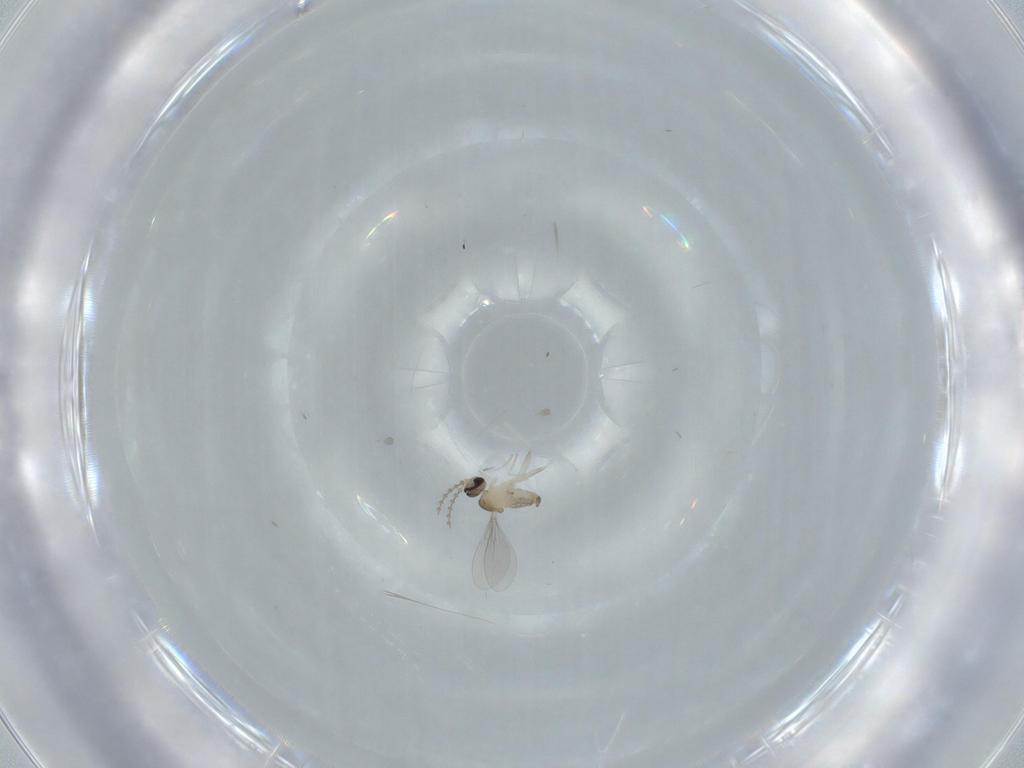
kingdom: Animalia
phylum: Arthropoda
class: Insecta
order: Diptera
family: Cecidomyiidae
